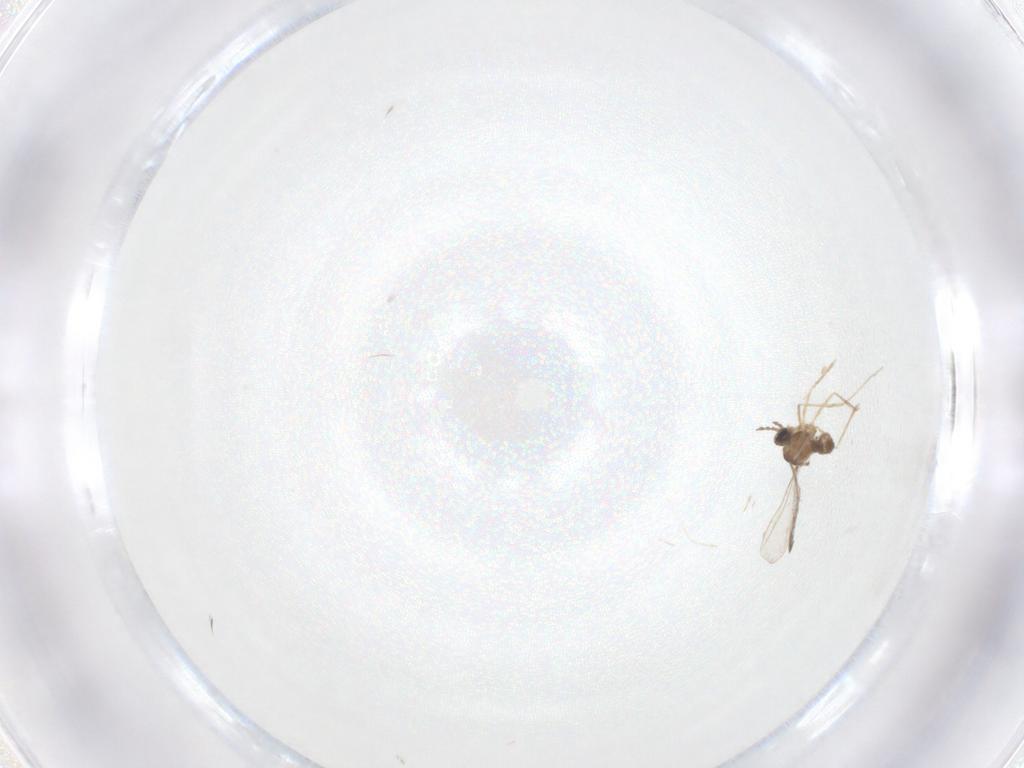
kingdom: Animalia
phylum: Arthropoda
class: Insecta
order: Diptera
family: Cecidomyiidae
